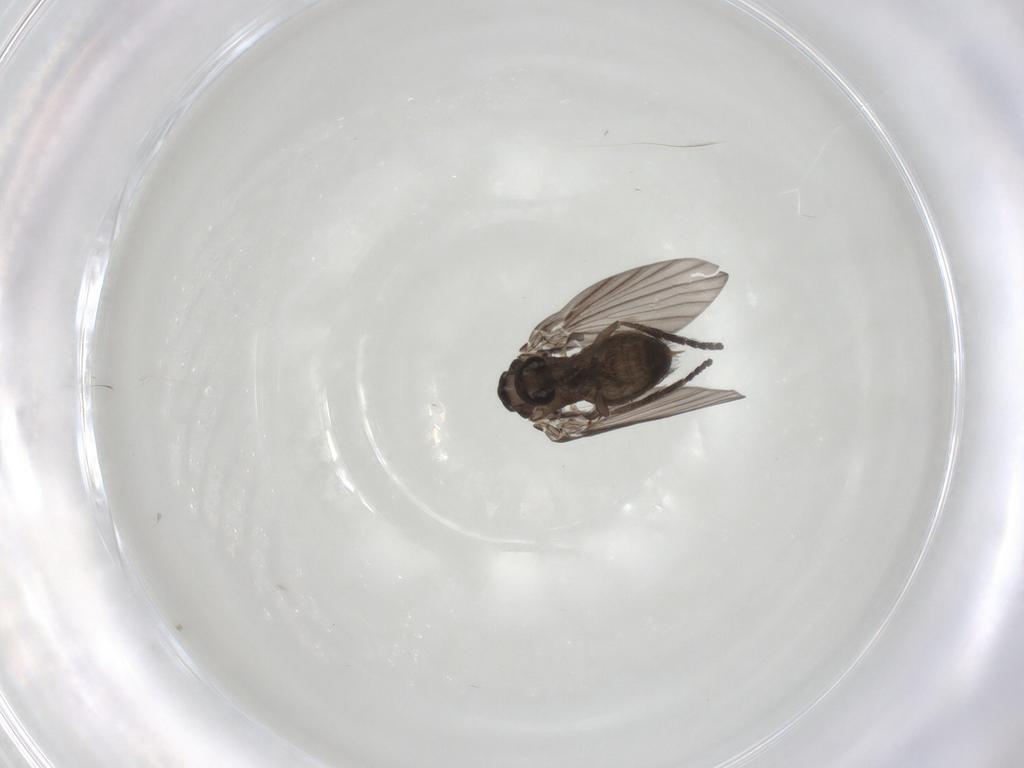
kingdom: Animalia
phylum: Arthropoda
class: Insecta
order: Diptera
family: Psychodidae
